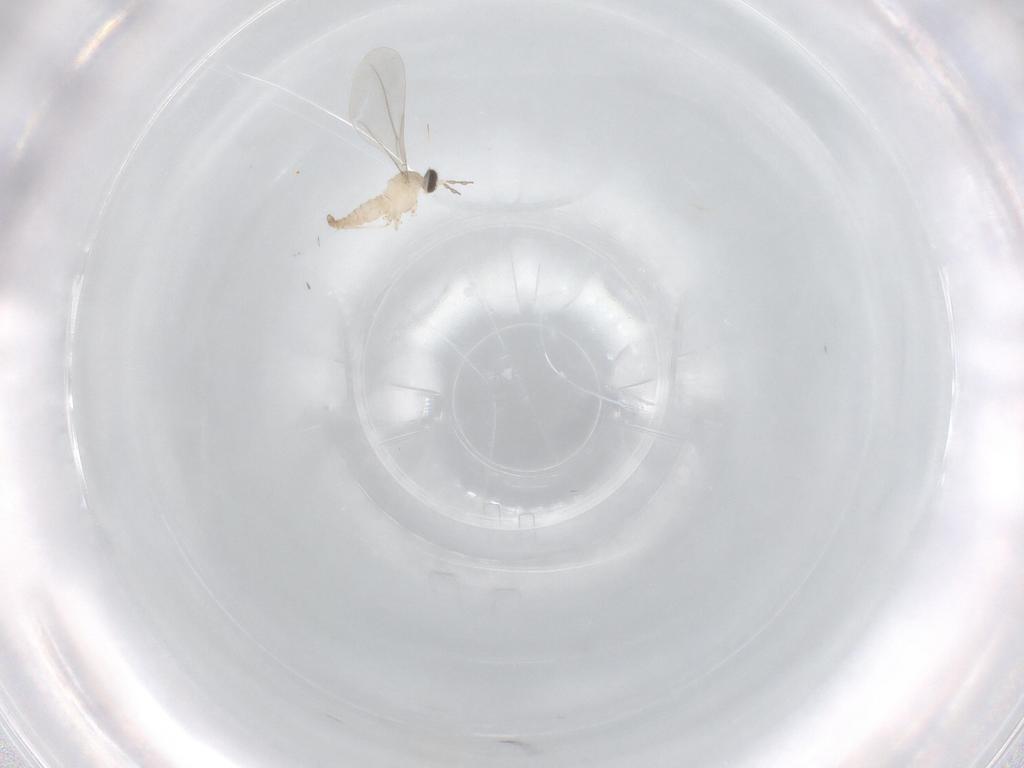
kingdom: Animalia
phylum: Arthropoda
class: Insecta
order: Diptera
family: Cecidomyiidae
